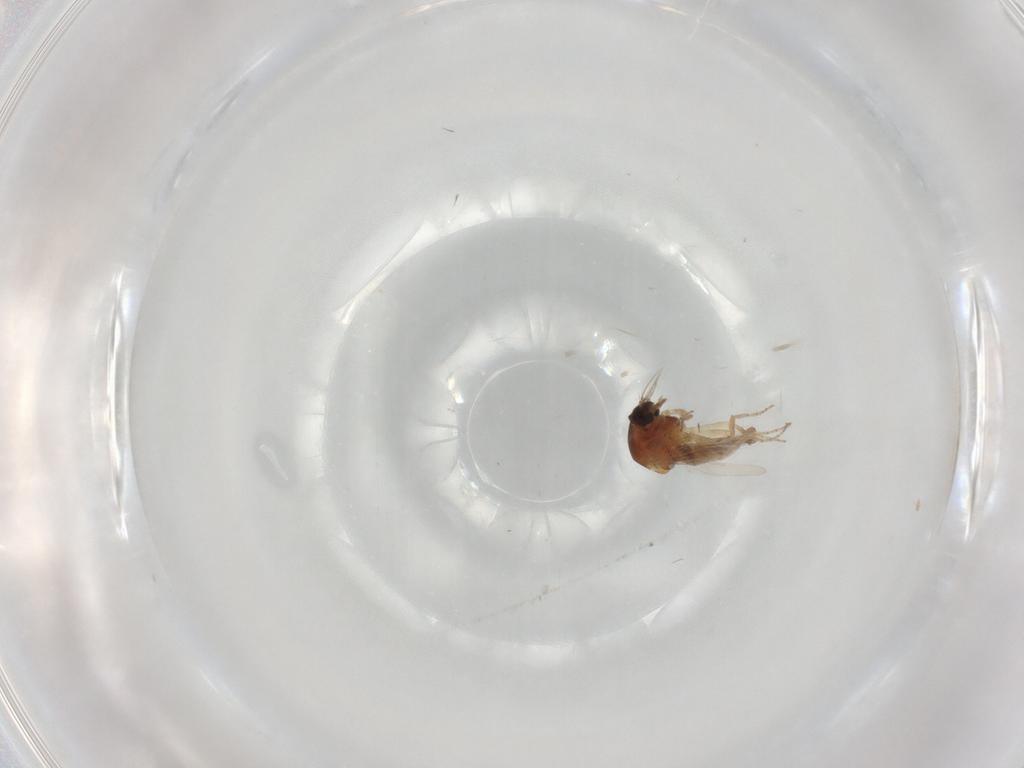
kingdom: Animalia
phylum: Arthropoda
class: Insecta
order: Diptera
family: Ceratopogonidae
